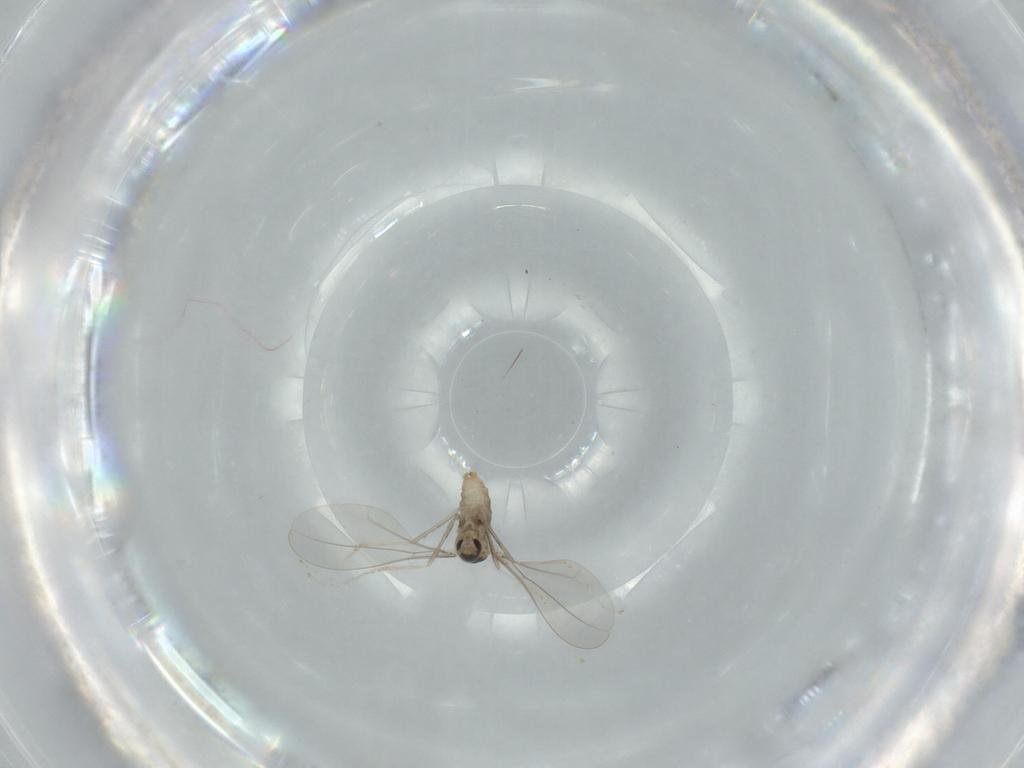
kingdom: Animalia
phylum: Arthropoda
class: Insecta
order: Diptera
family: Cecidomyiidae
